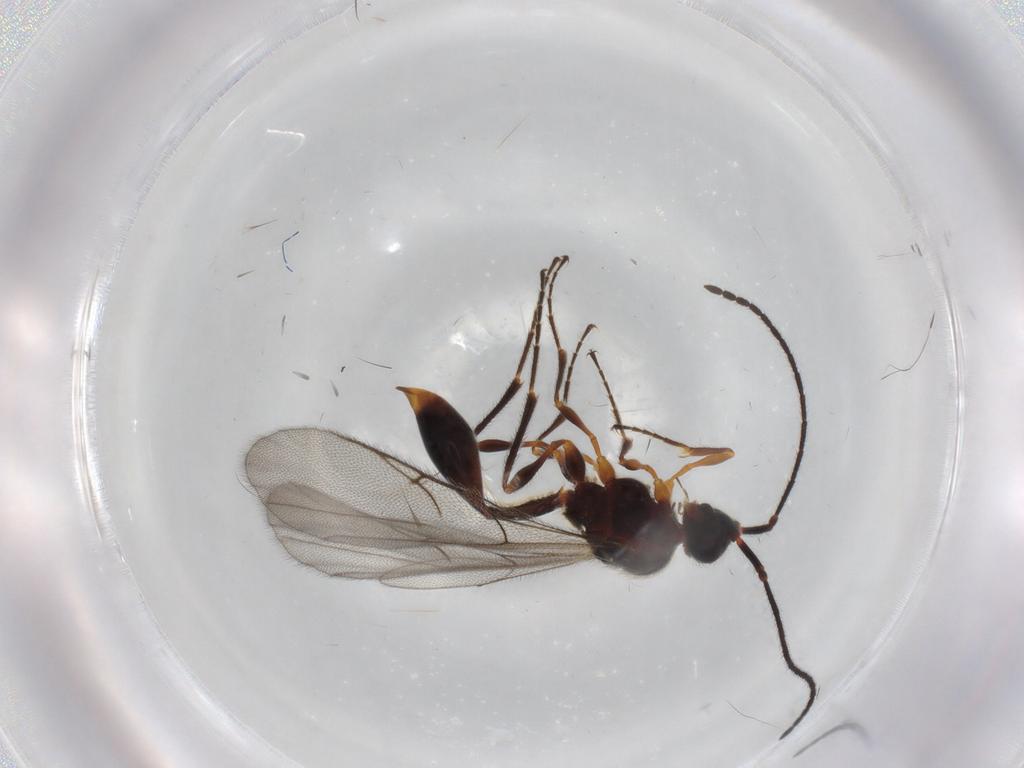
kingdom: Animalia
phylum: Arthropoda
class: Insecta
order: Hymenoptera
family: Diapriidae
